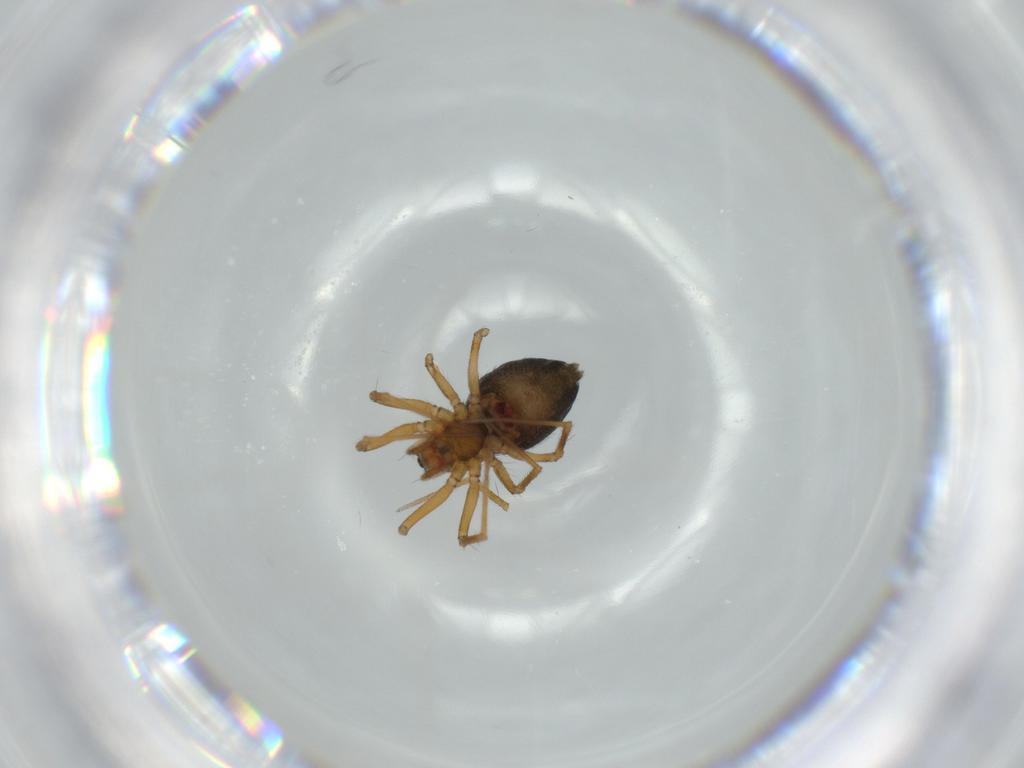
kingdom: Animalia
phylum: Arthropoda
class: Arachnida
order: Araneae
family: Linyphiidae
